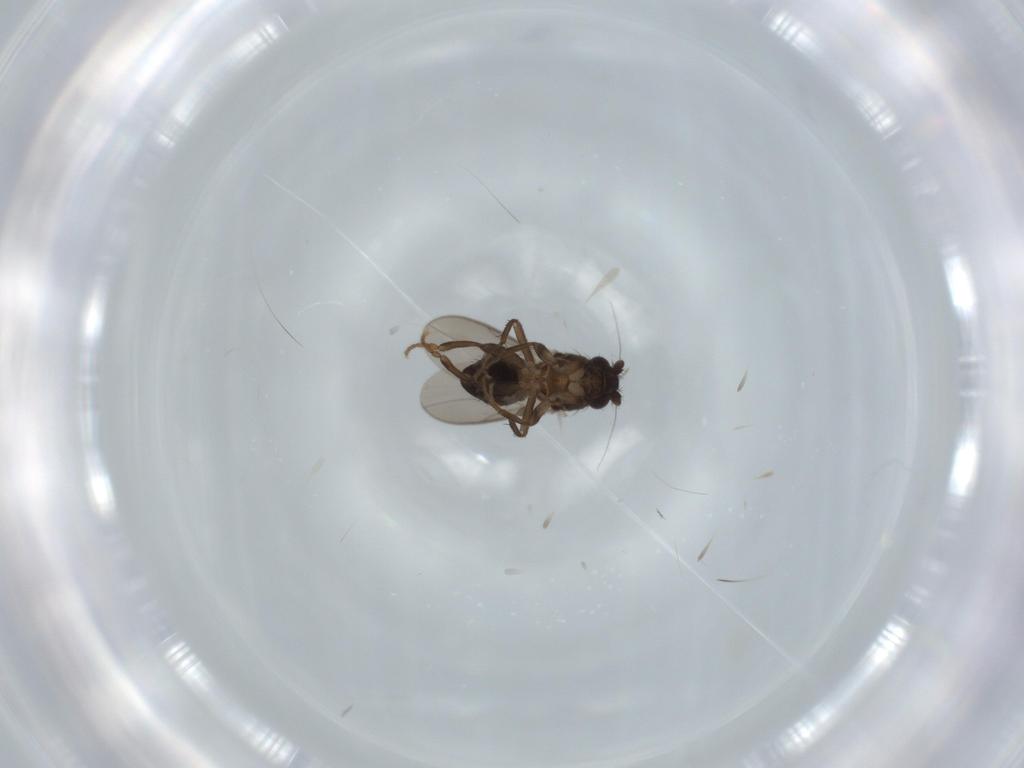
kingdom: Animalia
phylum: Arthropoda
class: Insecta
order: Diptera
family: Sphaeroceridae
